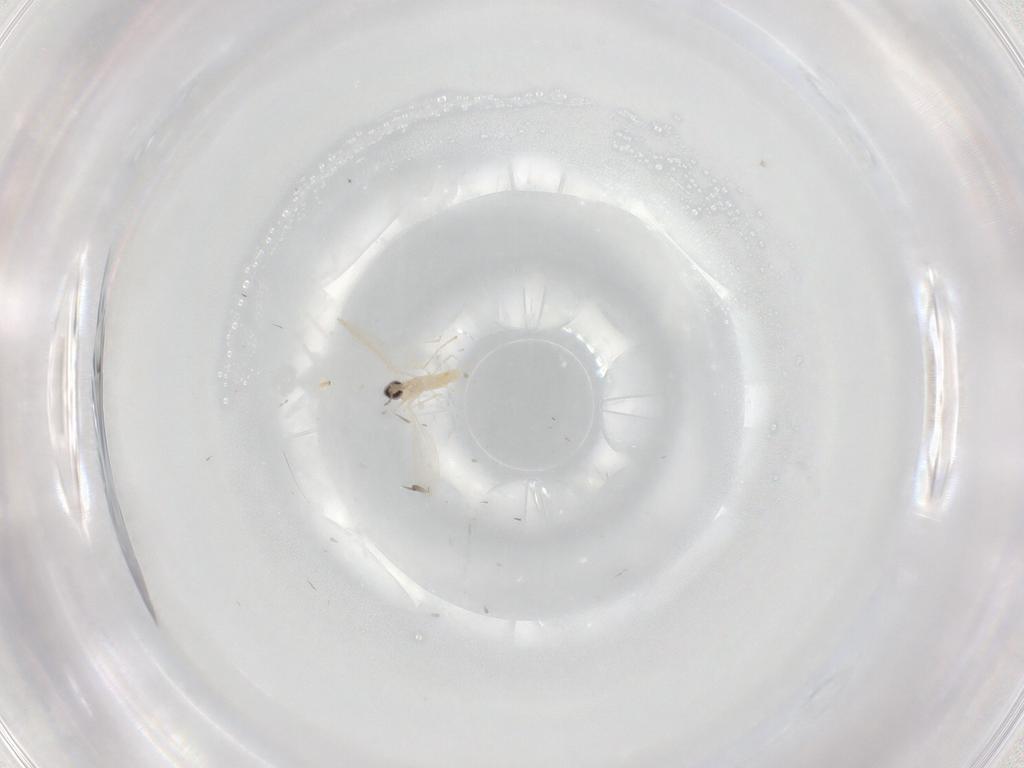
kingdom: Animalia
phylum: Arthropoda
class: Insecta
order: Diptera
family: Cecidomyiidae
